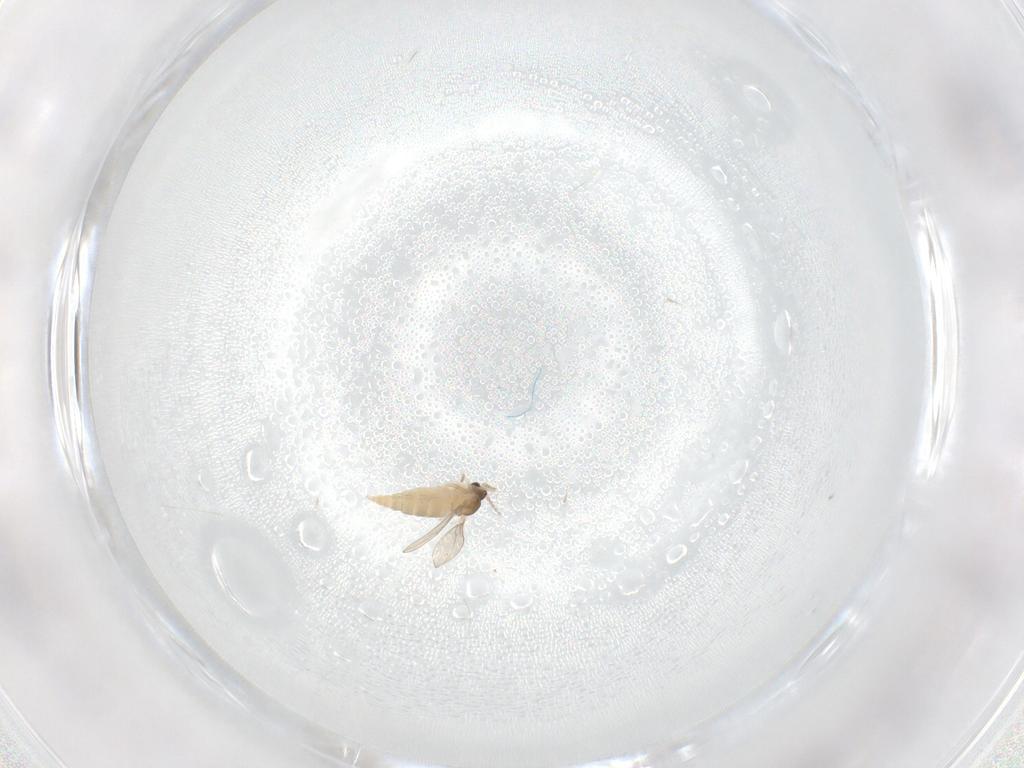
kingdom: Animalia
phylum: Arthropoda
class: Insecta
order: Diptera
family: Cecidomyiidae
